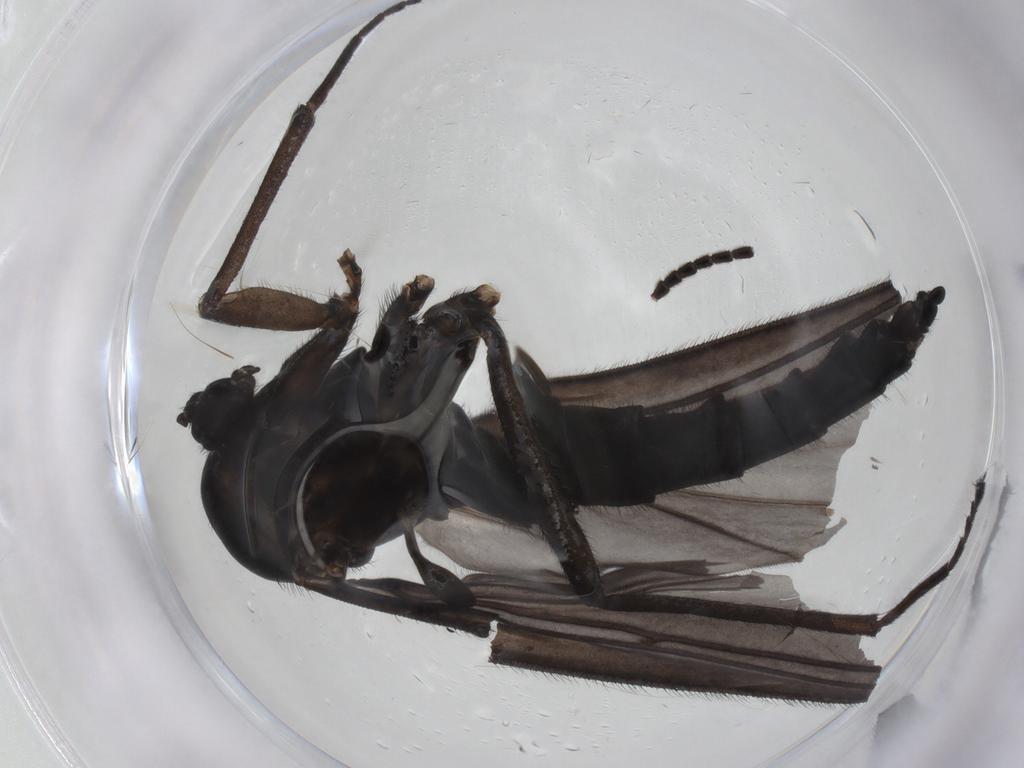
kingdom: Animalia
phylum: Arthropoda
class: Insecta
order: Diptera
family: Sciaridae
